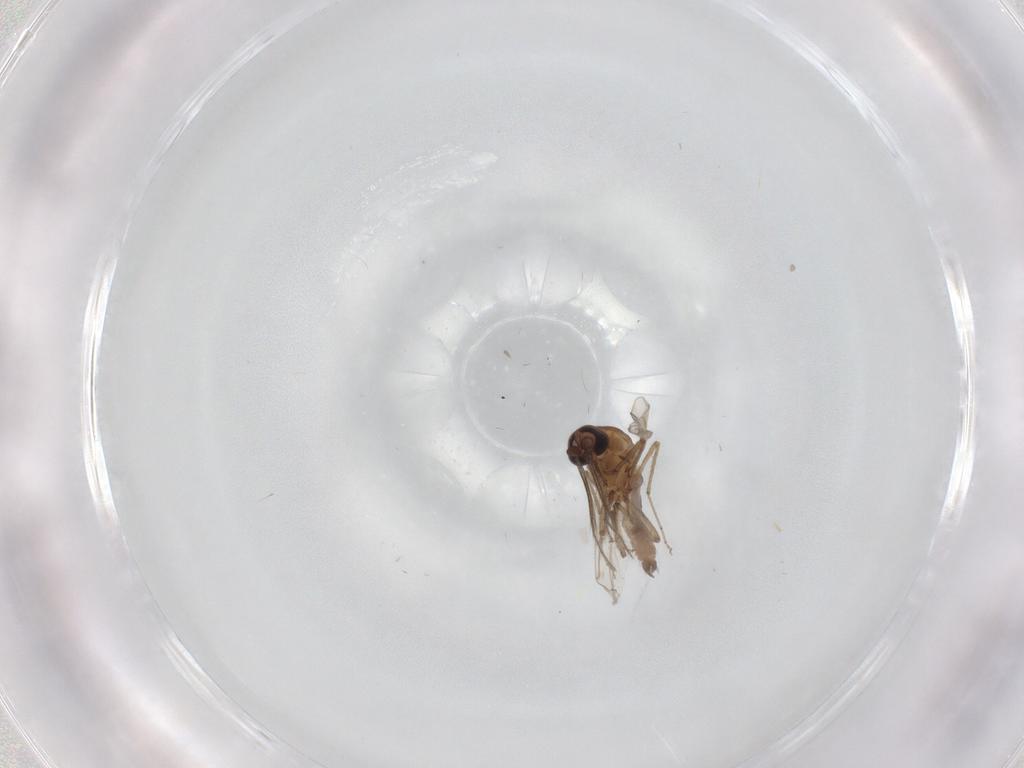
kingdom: Animalia
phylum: Arthropoda
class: Insecta
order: Diptera
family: Ceratopogonidae
